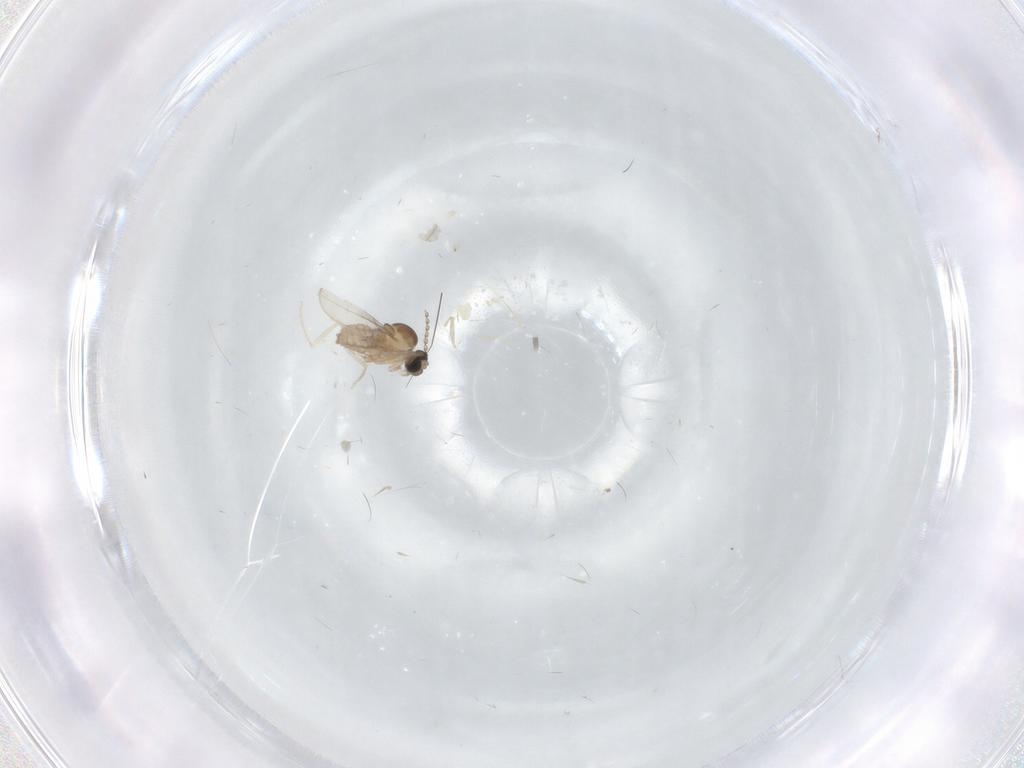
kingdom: Animalia
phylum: Arthropoda
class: Insecta
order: Diptera
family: Cecidomyiidae
